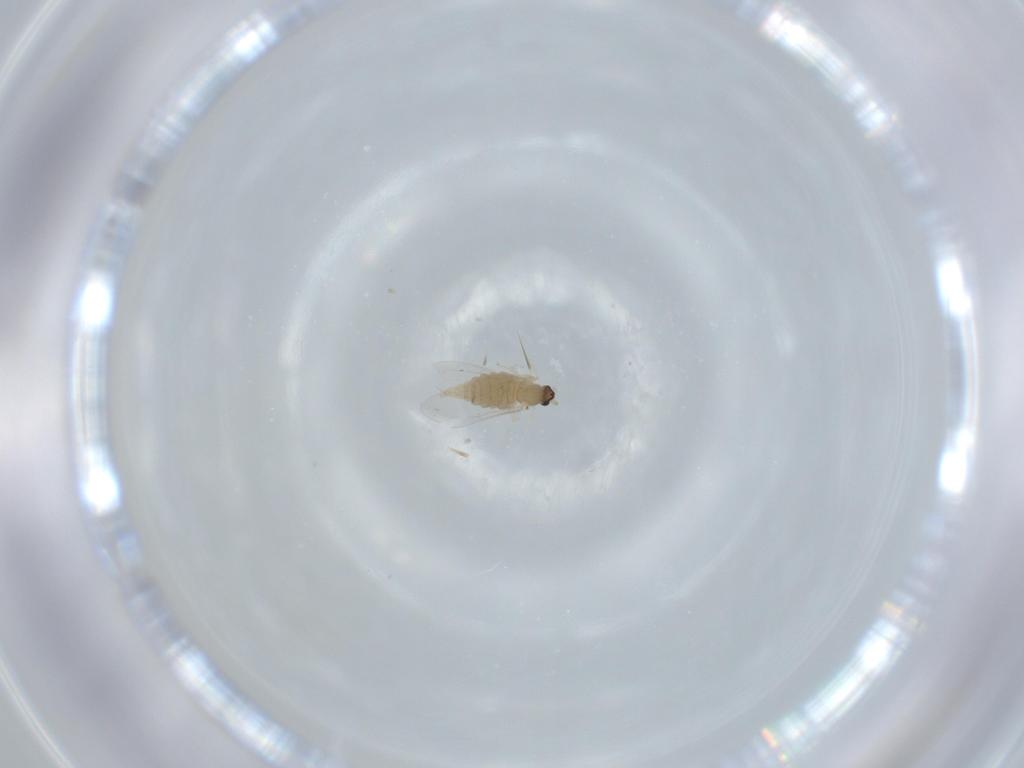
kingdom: Animalia
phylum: Arthropoda
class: Insecta
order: Diptera
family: Cecidomyiidae
